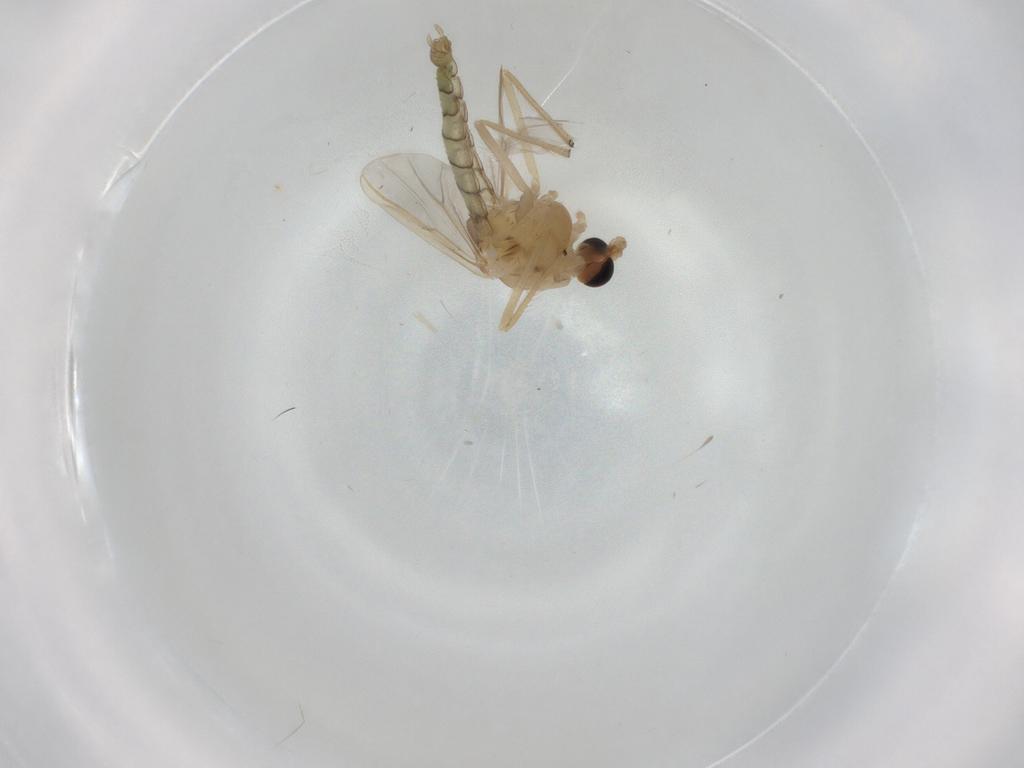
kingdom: Animalia
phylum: Arthropoda
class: Insecta
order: Diptera
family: Chironomidae
